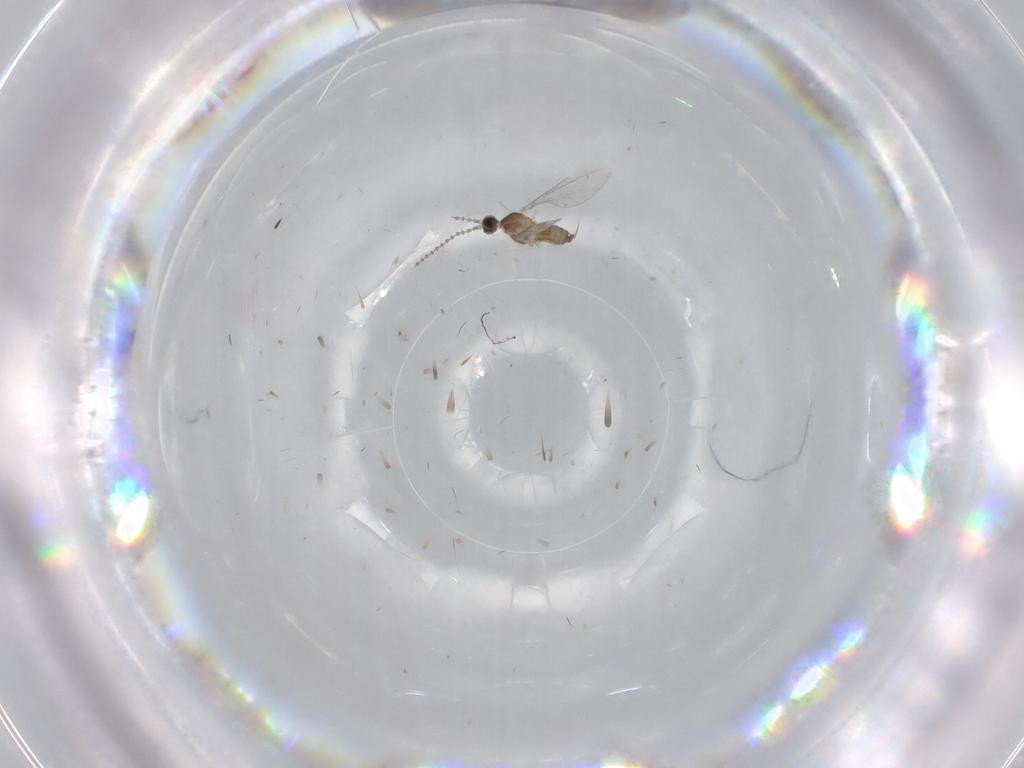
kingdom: Animalia
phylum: Arthropoda
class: Insecta
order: Diptera
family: Cecidomyiidae
